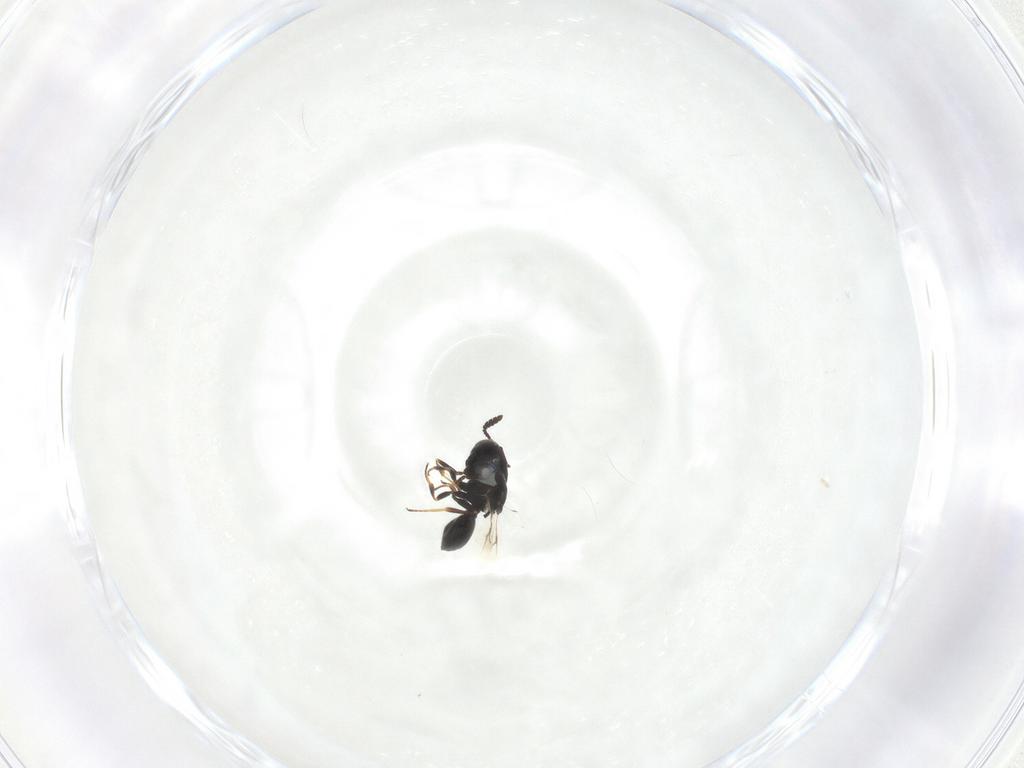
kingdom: Animalia
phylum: Arthropoda
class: Insecta
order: Hymenoptera
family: Scelionidae
